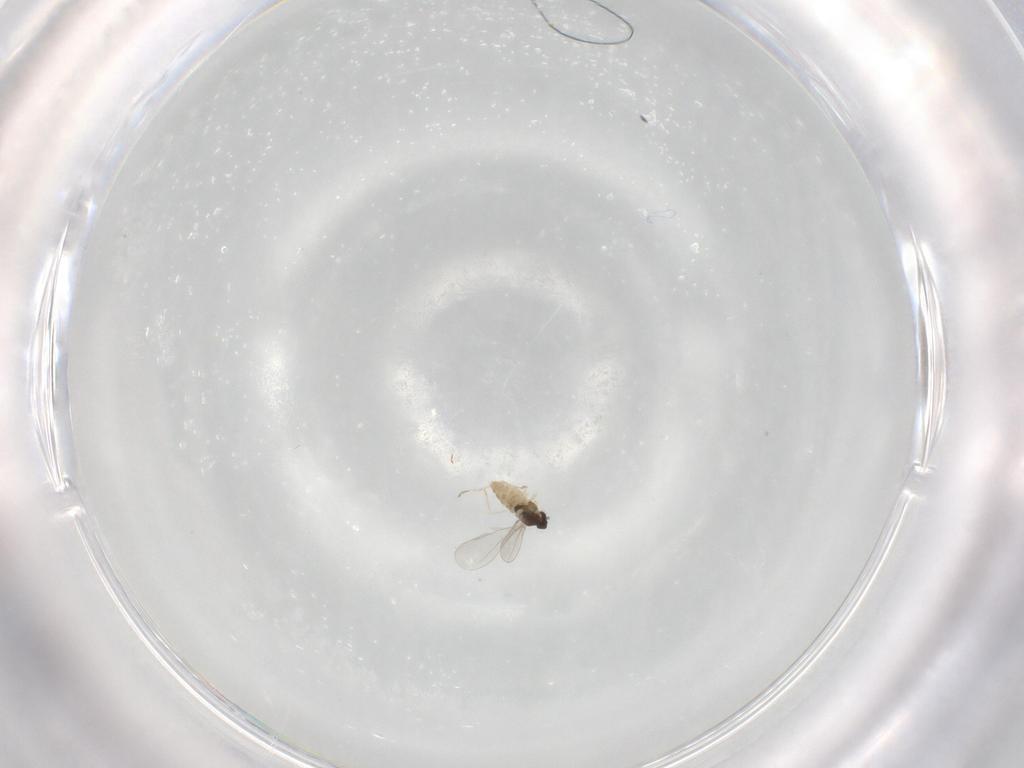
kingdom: Animalia
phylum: Arthropoda
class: Insecta
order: Diptera
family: Cecidomyiidae
